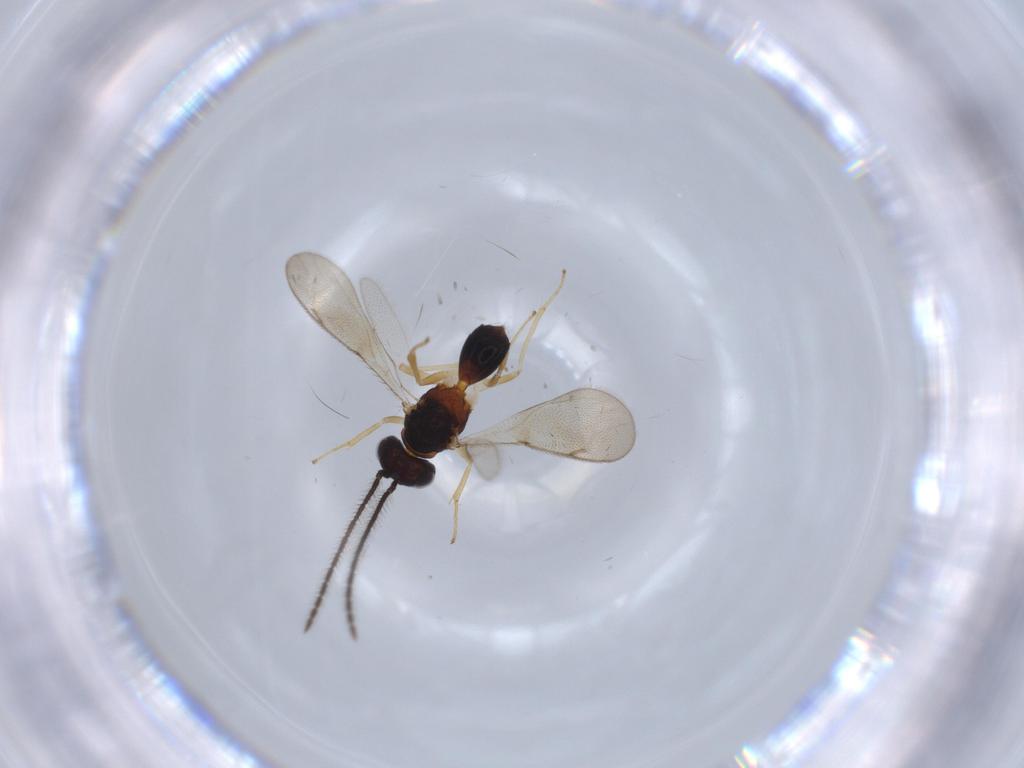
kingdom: Animalia
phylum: Arthropoda
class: Insecta
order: Hymenoptera
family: Diparidae
